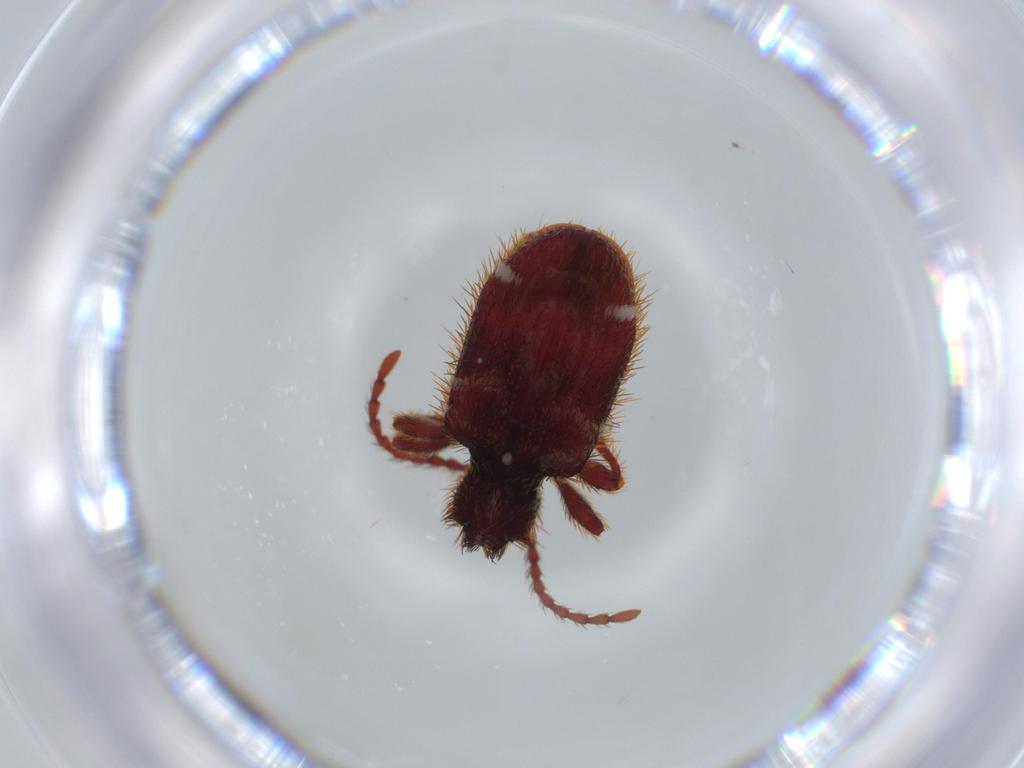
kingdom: Animalia
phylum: Arthropoda
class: Insecta
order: Coleoptera
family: Ptinidae
